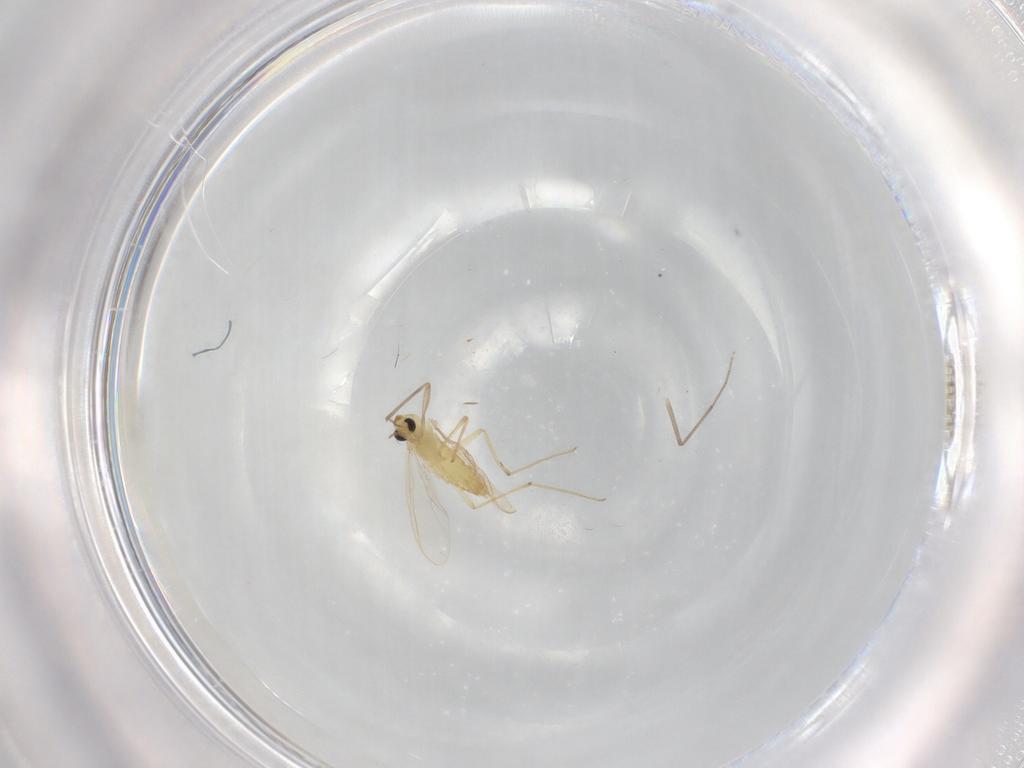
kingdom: Animalia
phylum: Arthropoda
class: Insecta
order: Diptera
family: Chironomidae
